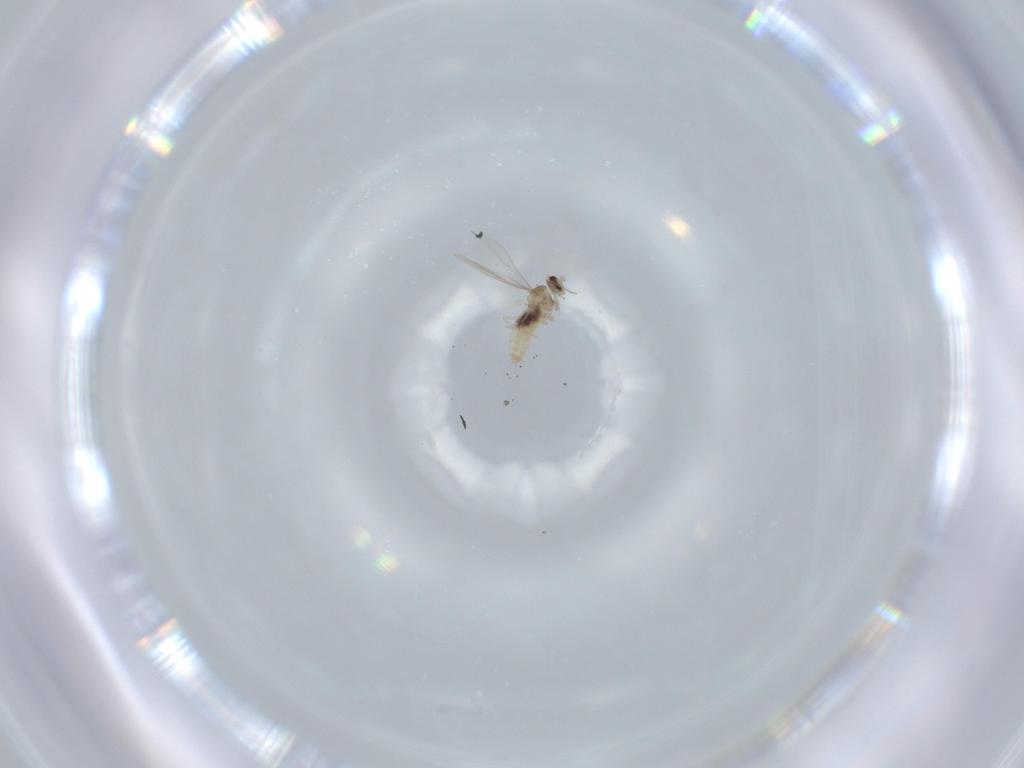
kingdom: Animalia
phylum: Arthropoda
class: Insecta
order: Diptera
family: Cecidomyiidae
